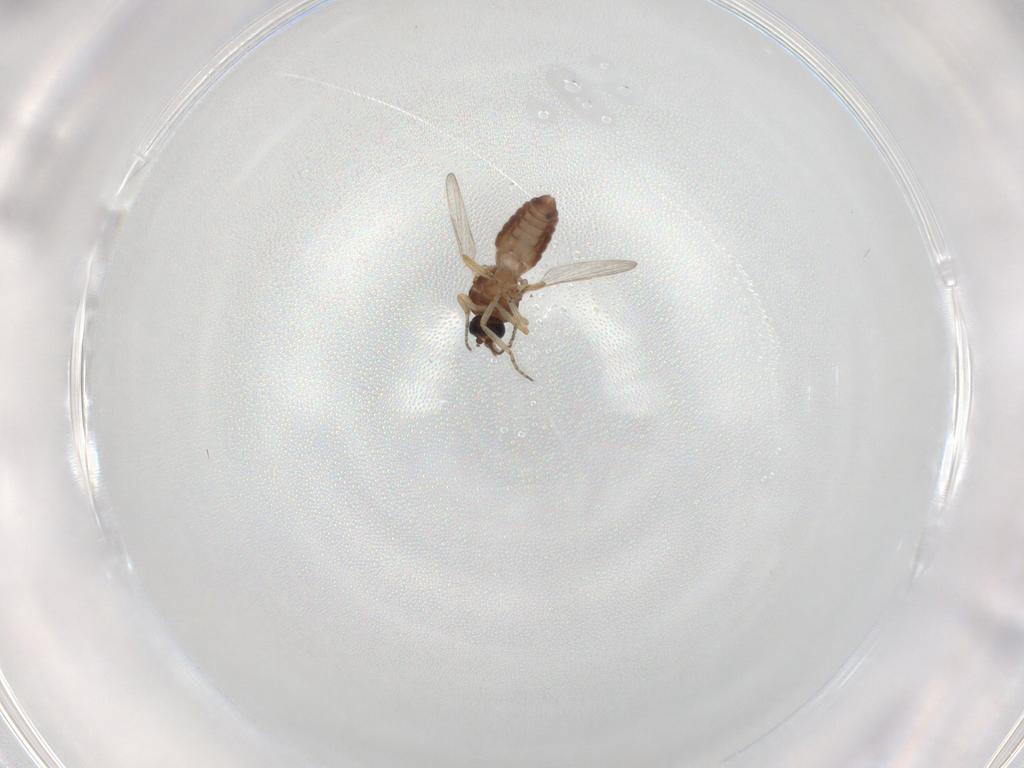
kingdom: Animalia
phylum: Arthropoda
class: Insecta
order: Diptera
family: Ceratopogonidae
